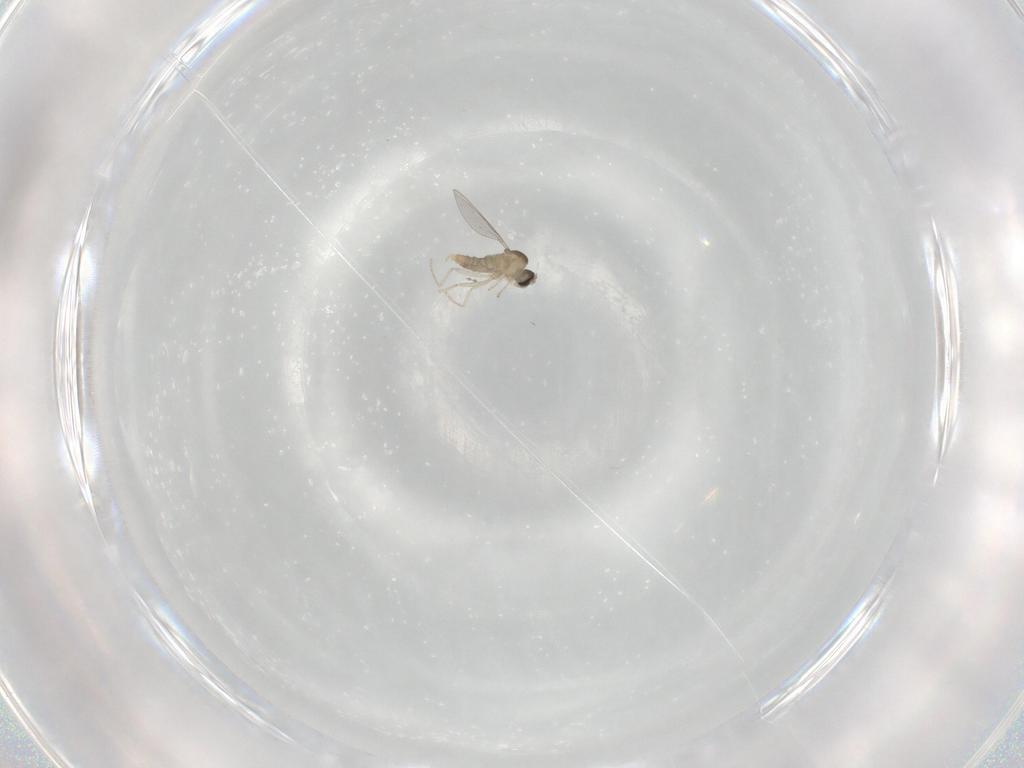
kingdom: Animalia
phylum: Arthropoda
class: Insecta
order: Diptera
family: Cecidomyiidae
